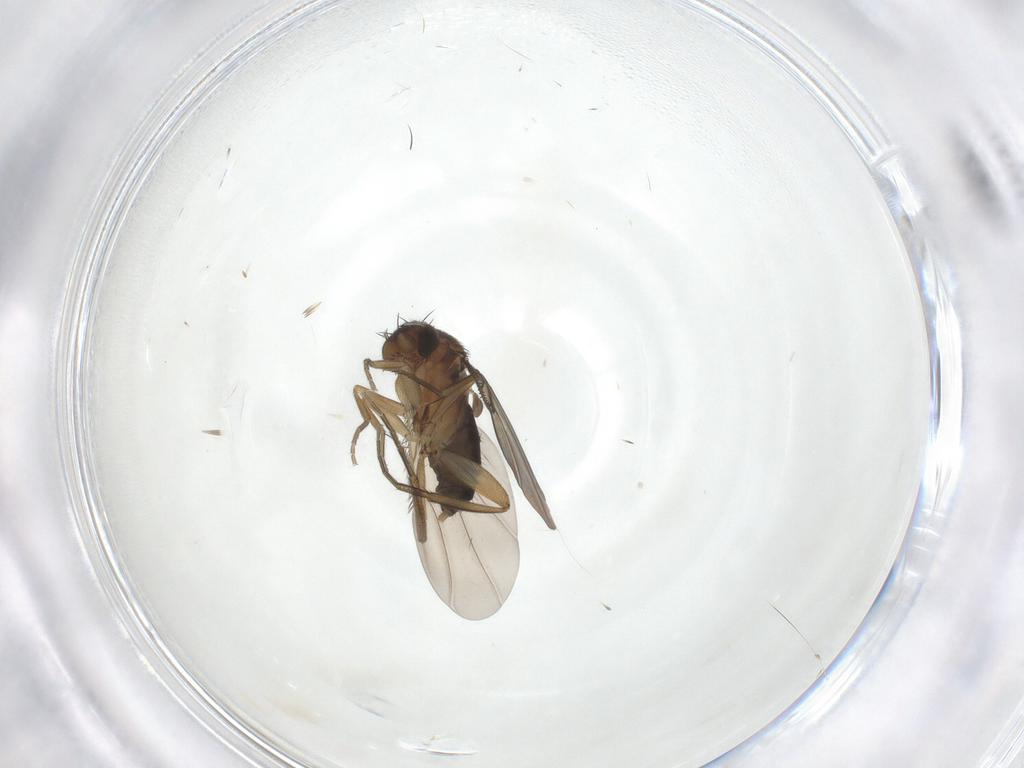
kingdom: Animalia
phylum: Arthropoda
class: Insecta
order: Diptera
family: Phoridae
